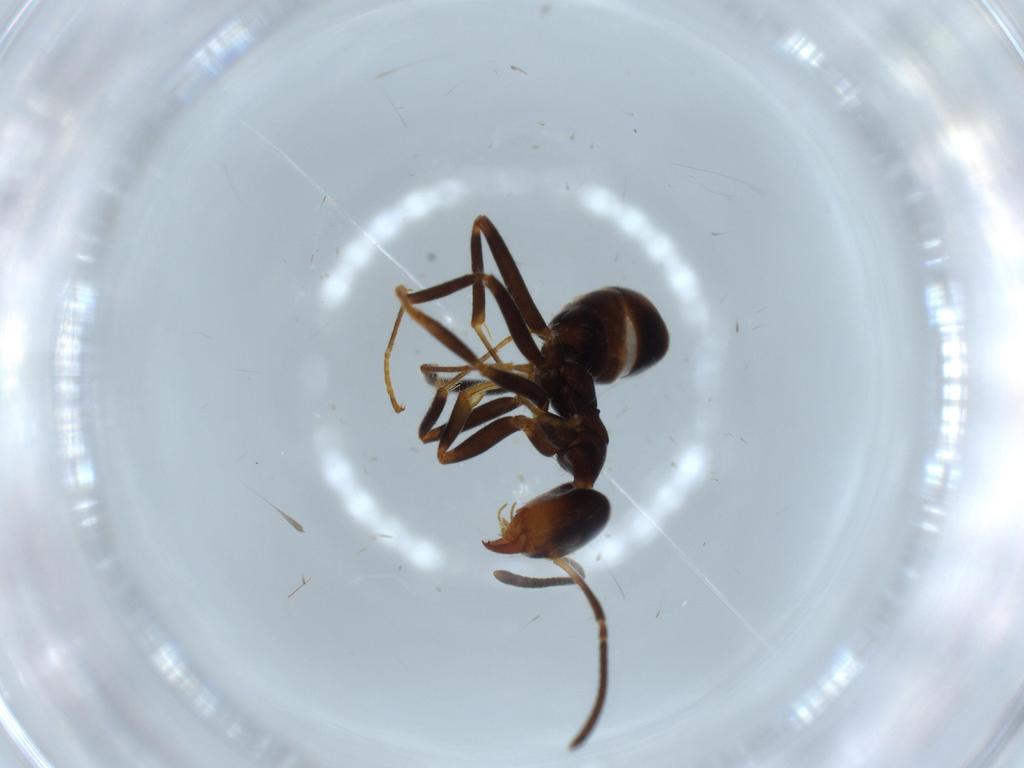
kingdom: Animalia
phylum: Arthropoda
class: Insecta
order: Hymenoptera
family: Formicidae
